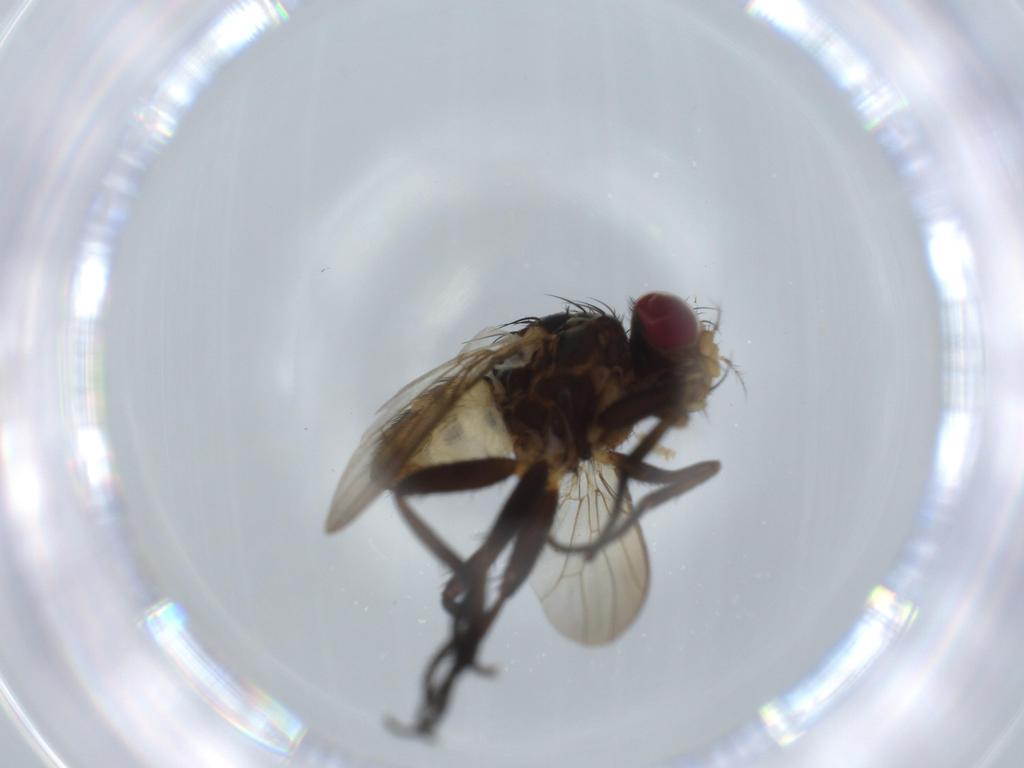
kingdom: Animalia
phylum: Arthropoda
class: Insecta
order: Diptera
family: Anthomyiidae
